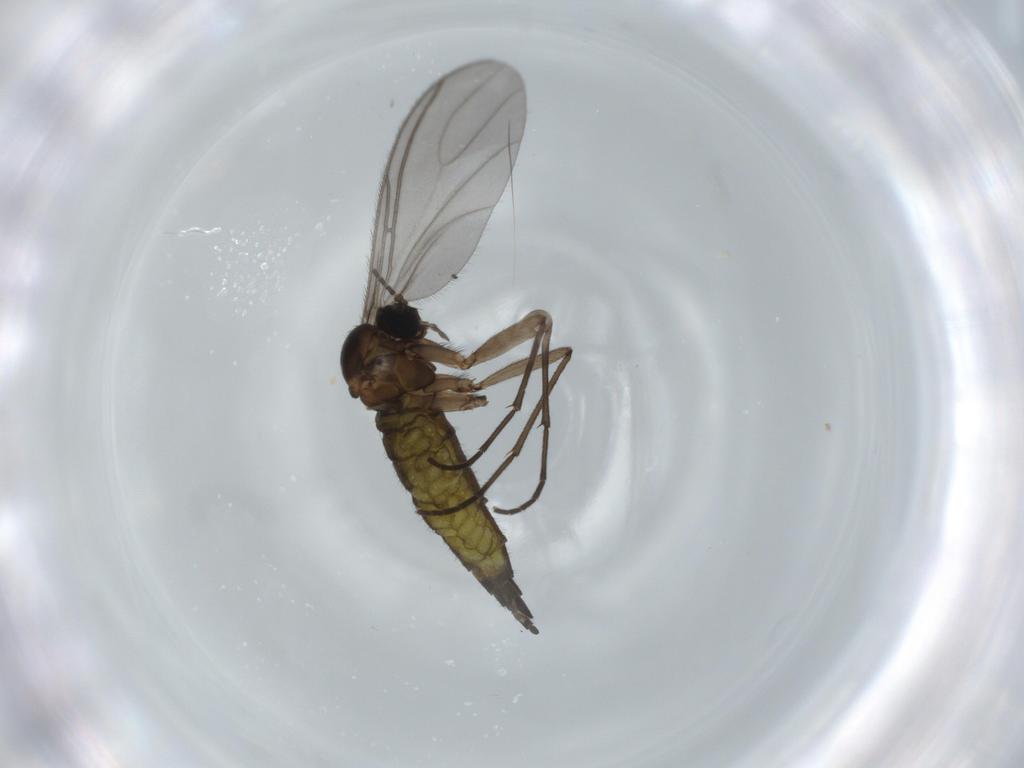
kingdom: Animalia
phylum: Arthropoda
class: Insecta
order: Diptera
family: Sciaridae
